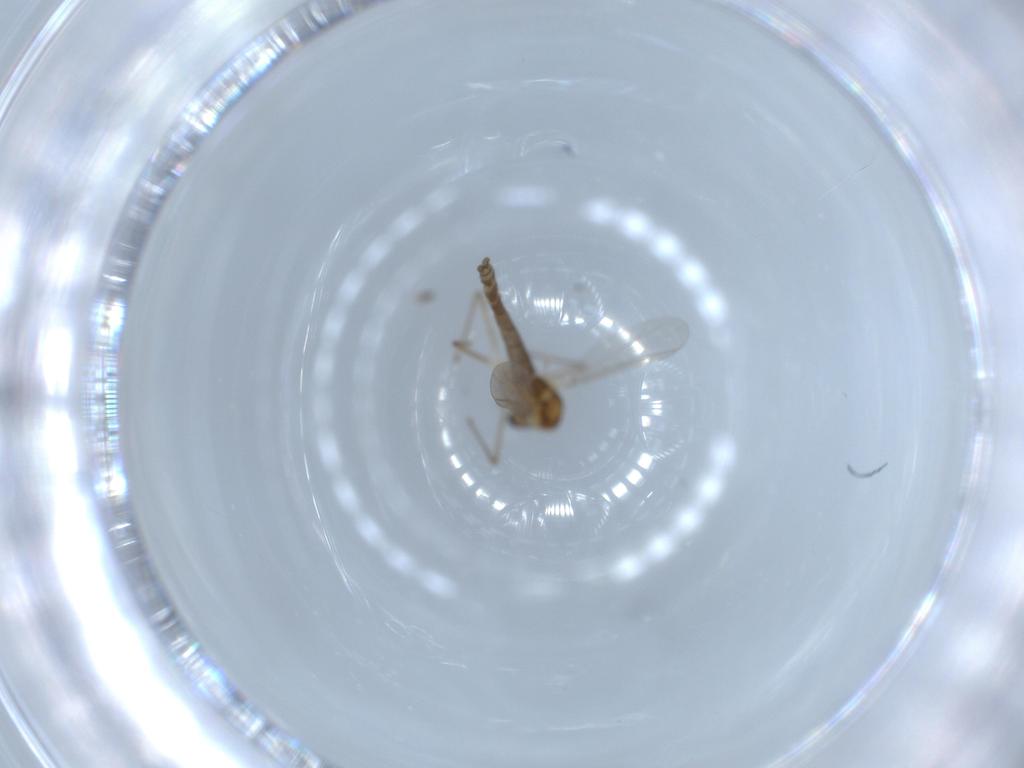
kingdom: Animalia
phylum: Arthropoda
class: Insecta
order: Diptera
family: Chironomidae
